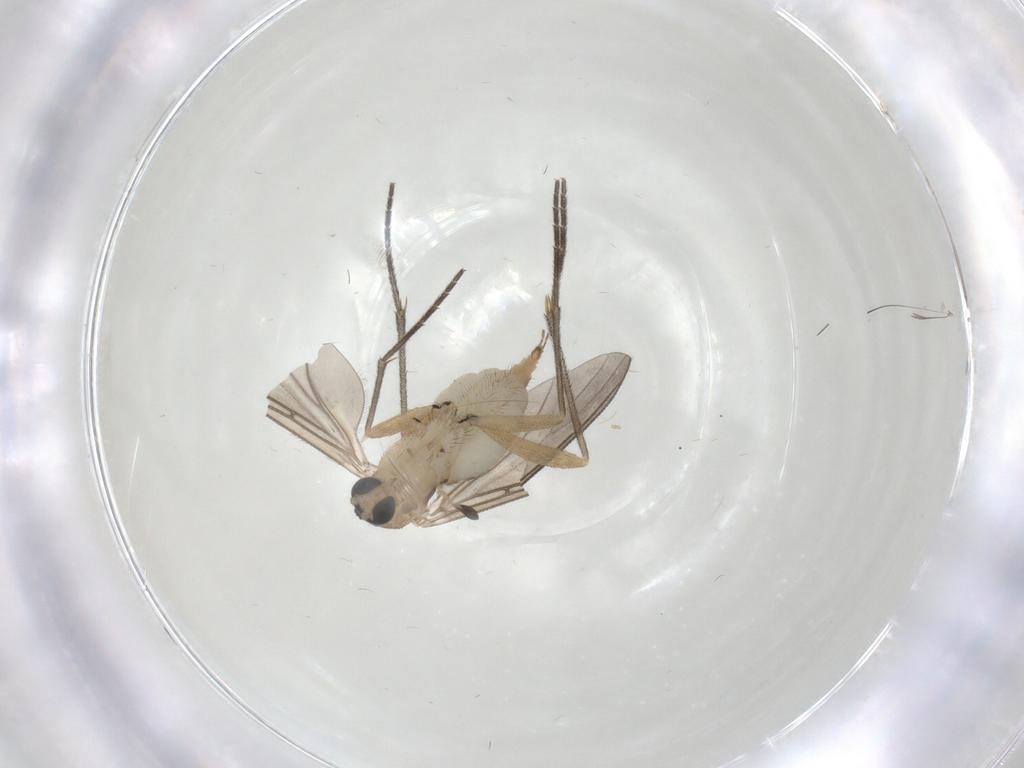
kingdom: Animalia
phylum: Arthropoda
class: Insecta
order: Diptera
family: Sciaridae
